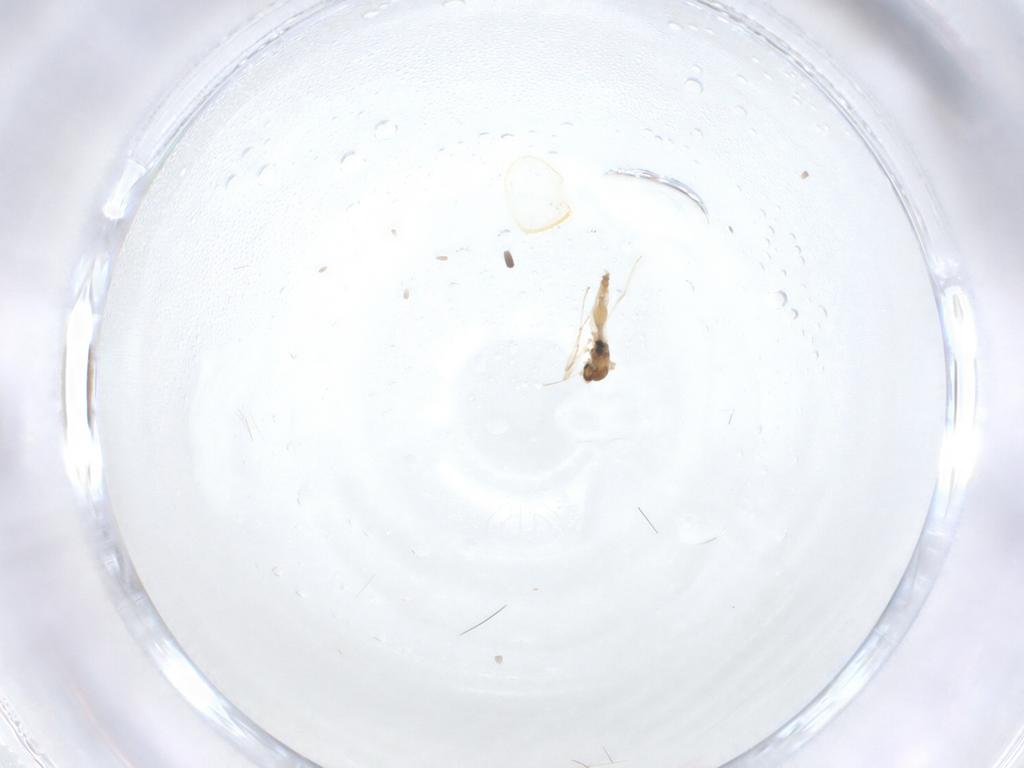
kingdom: Animalia
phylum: Arthropoda
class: Insecta
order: Diptera
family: Sarcophagidae
